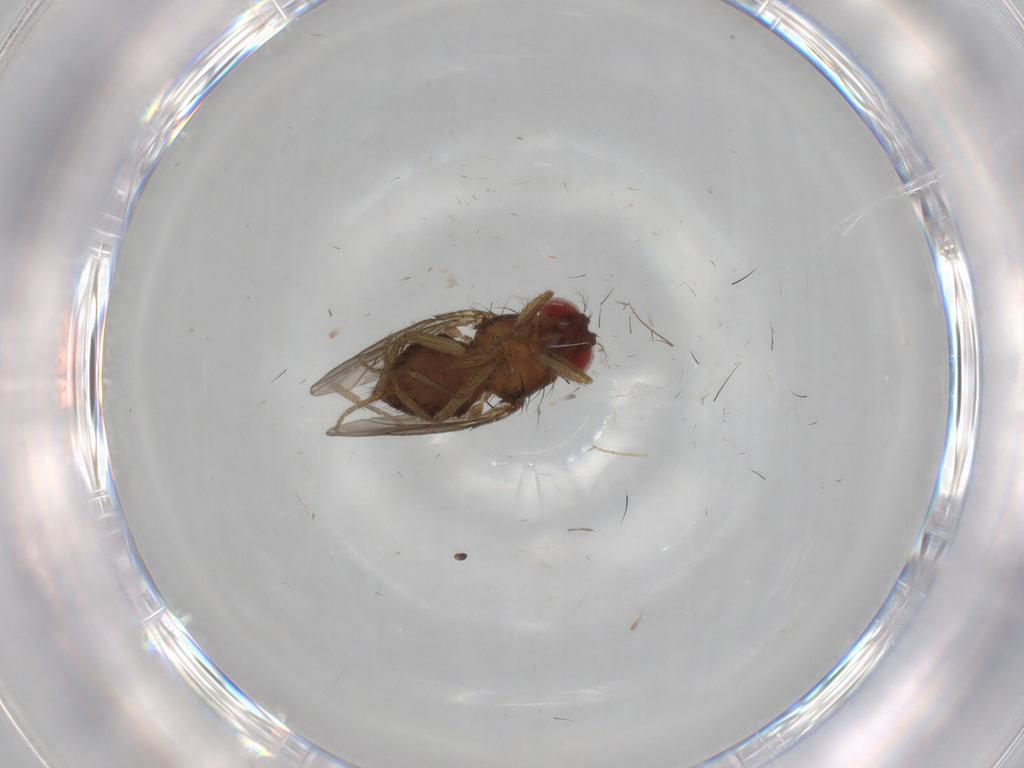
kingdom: Animalia
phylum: Arthropoda
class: Insecta
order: Diptera
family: Drosophilidae
